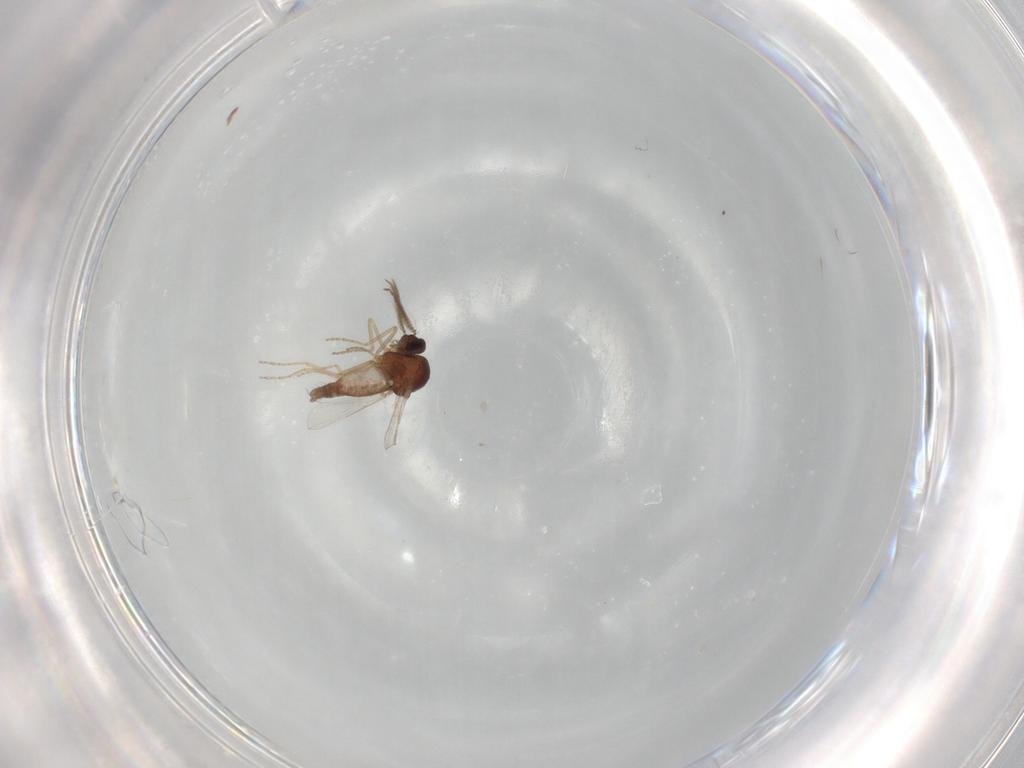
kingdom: Animalia
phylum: Arthropoda
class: Insecta
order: Diptera
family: Ceratopogonidae
